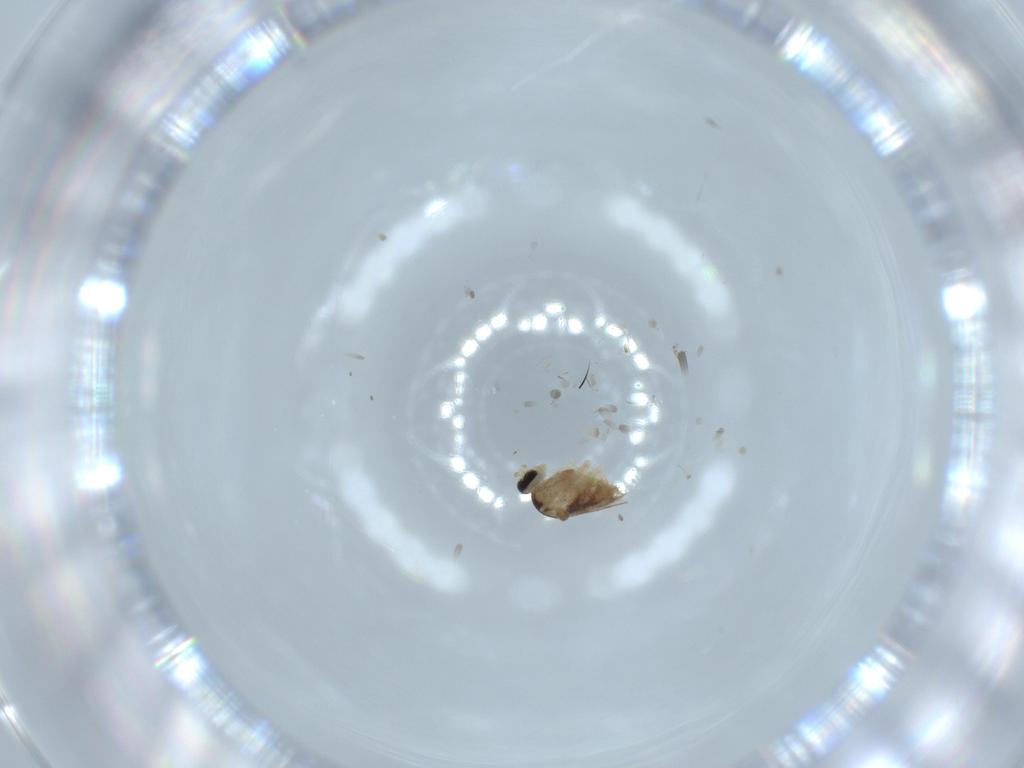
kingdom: Animalia
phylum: Arthropoda
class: Insecta
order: Diptera
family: Cecidomyiidae
